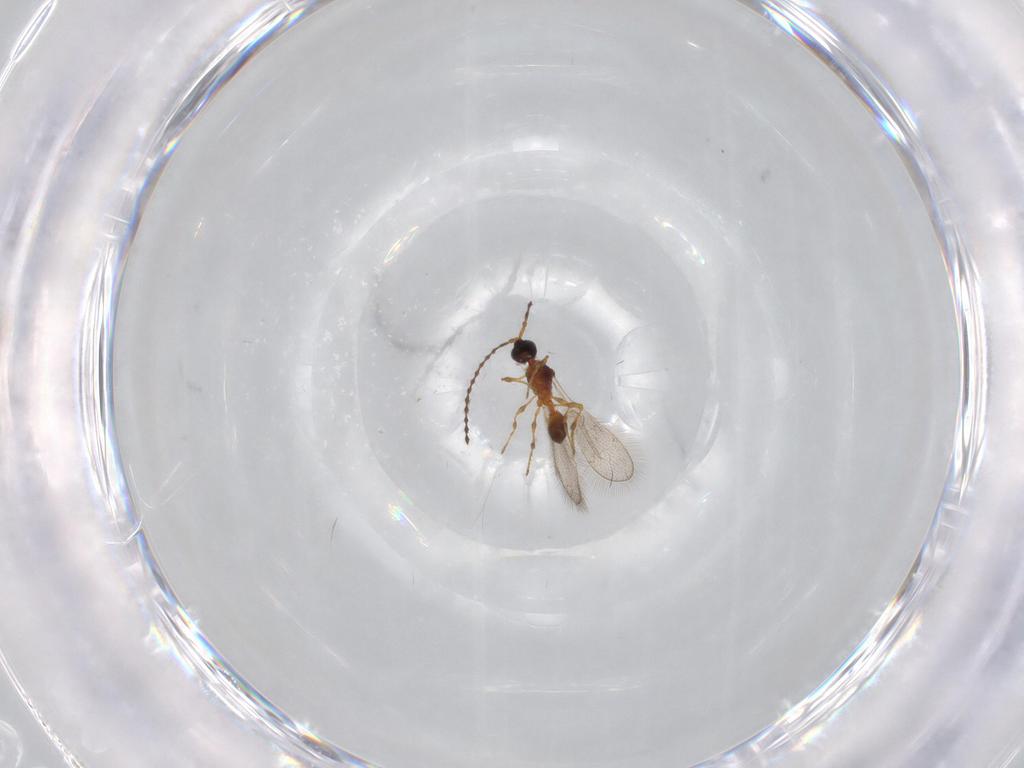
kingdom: Animalia
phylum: Arthropoda
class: Insecta
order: Hymenoptera
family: Diapriidae
